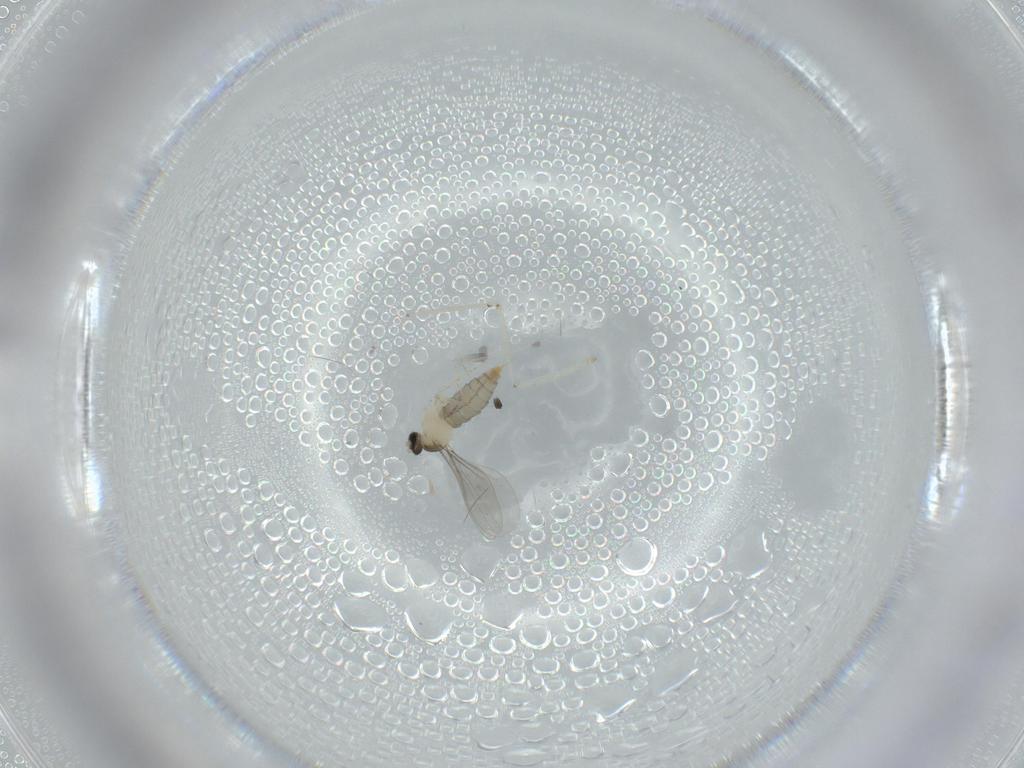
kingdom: Animalia
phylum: Arthropoda
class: Insecta
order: Diptera
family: Cecidomyiidae
